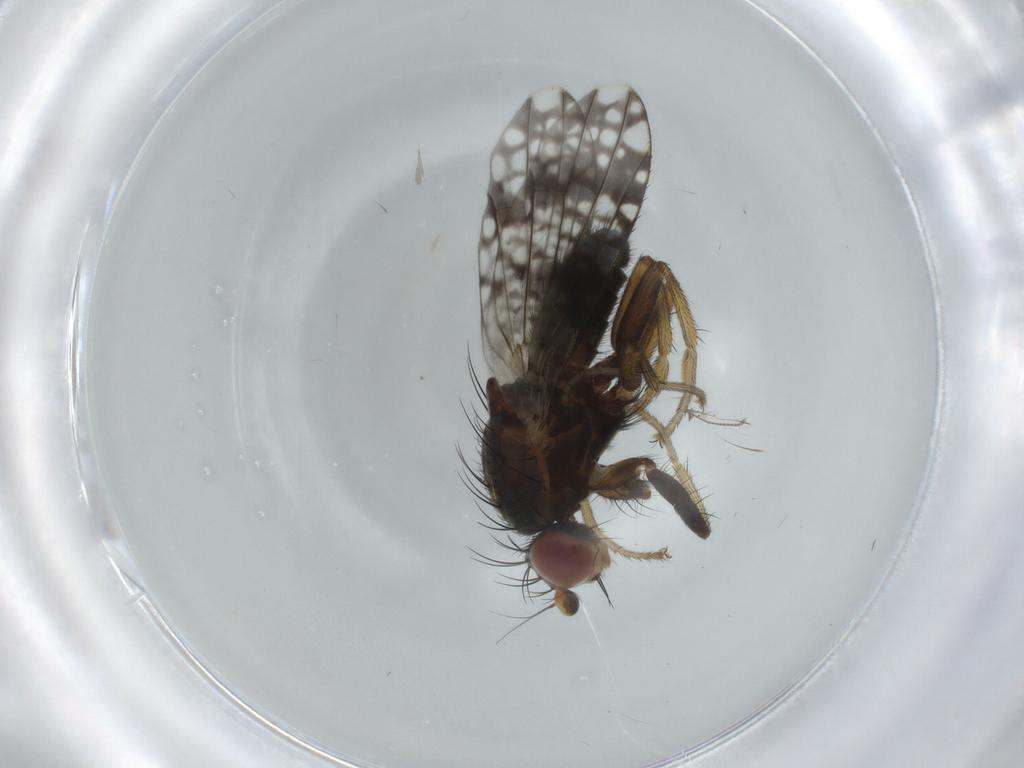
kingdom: Animalia
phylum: Arthropoda
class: Insecta
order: Diptera
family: Tephritidae
